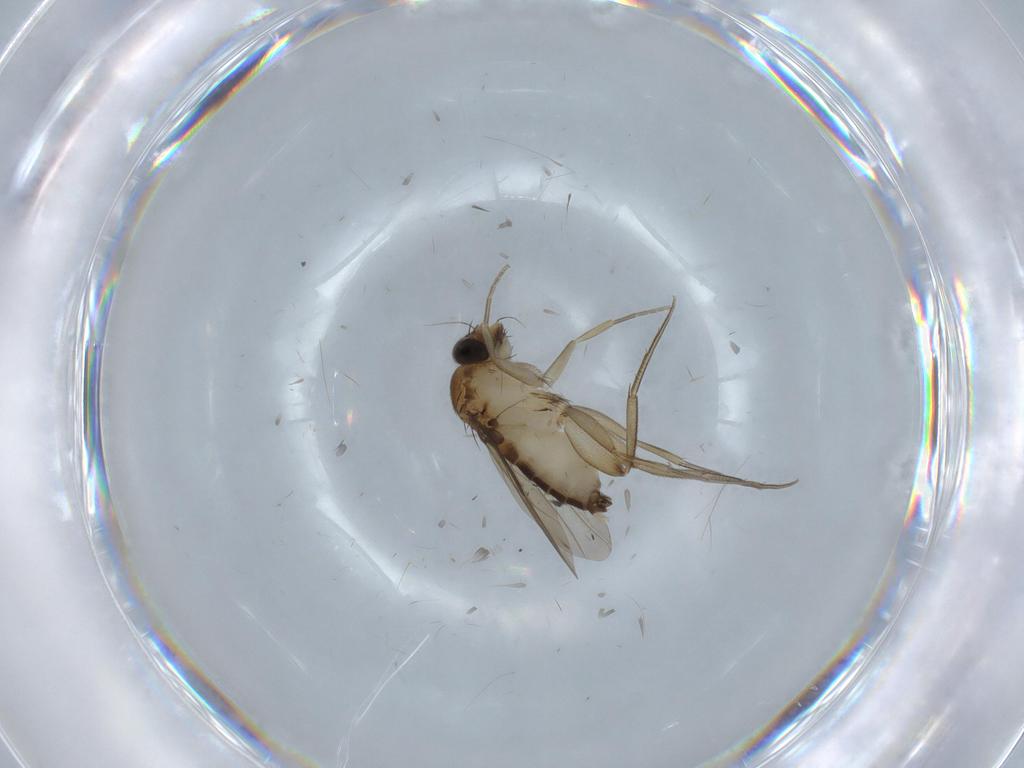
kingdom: Animalia
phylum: Arthropoda
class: Insecta
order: Diptera
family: Phoridae
